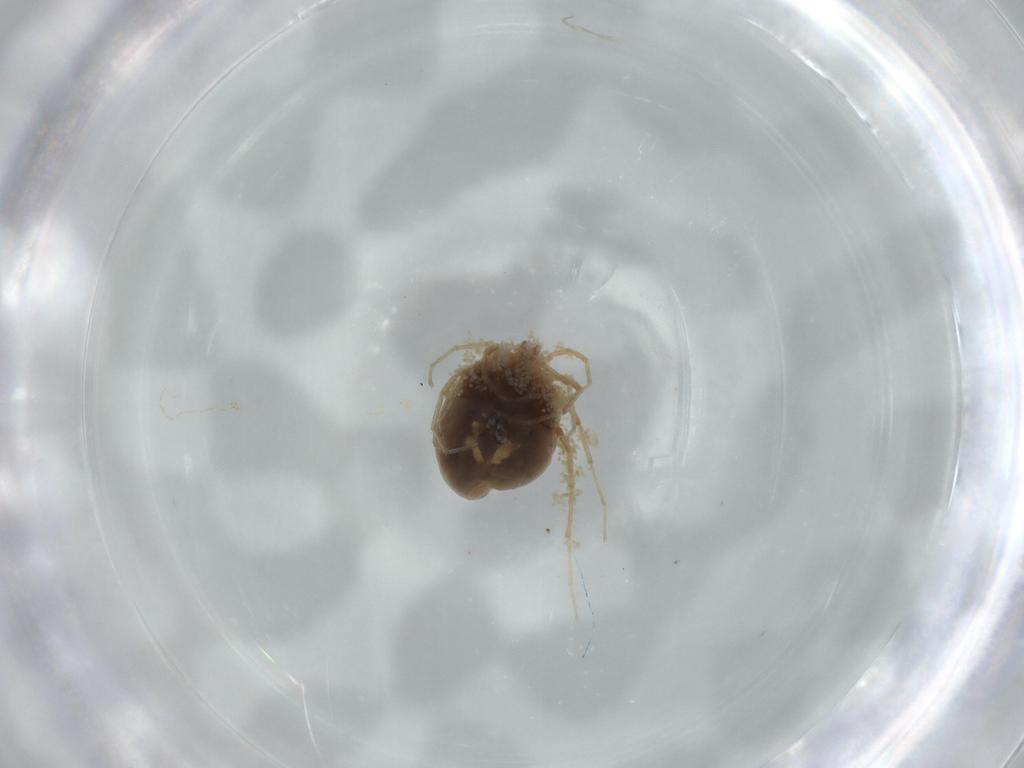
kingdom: Animalia
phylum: Arthropoda
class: Arachnida
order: Trombidiformes
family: Hygrobatidae
